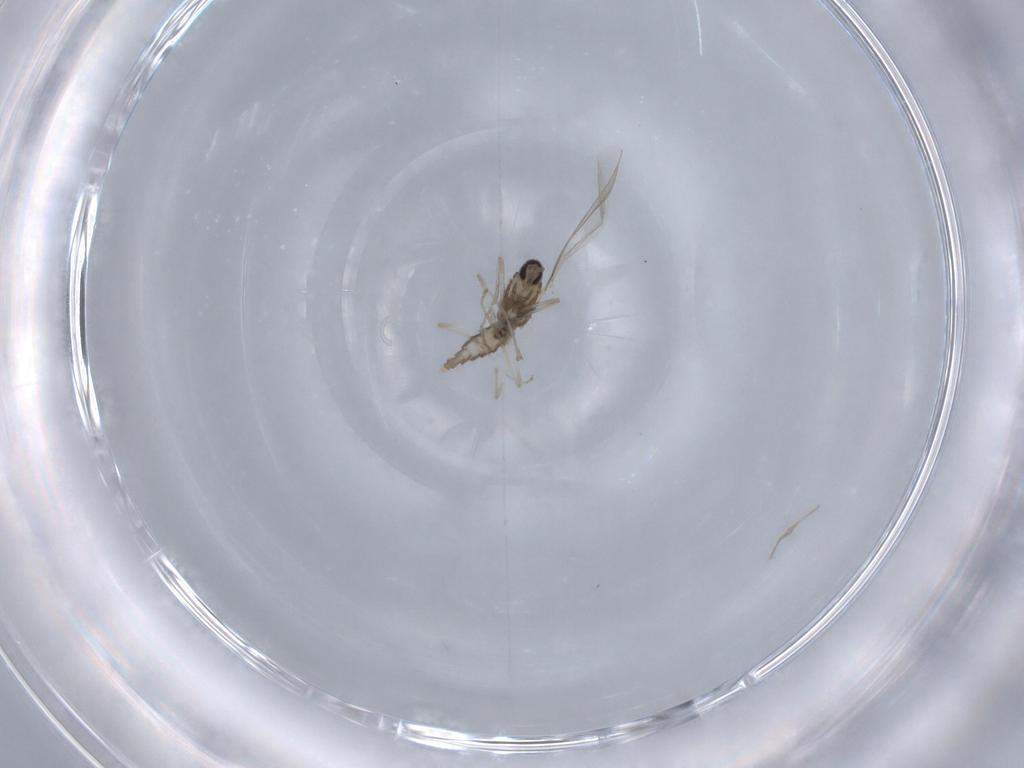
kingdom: Animalia
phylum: Arthropoda
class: Insecta
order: Diptera
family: Cecidomyiidae
